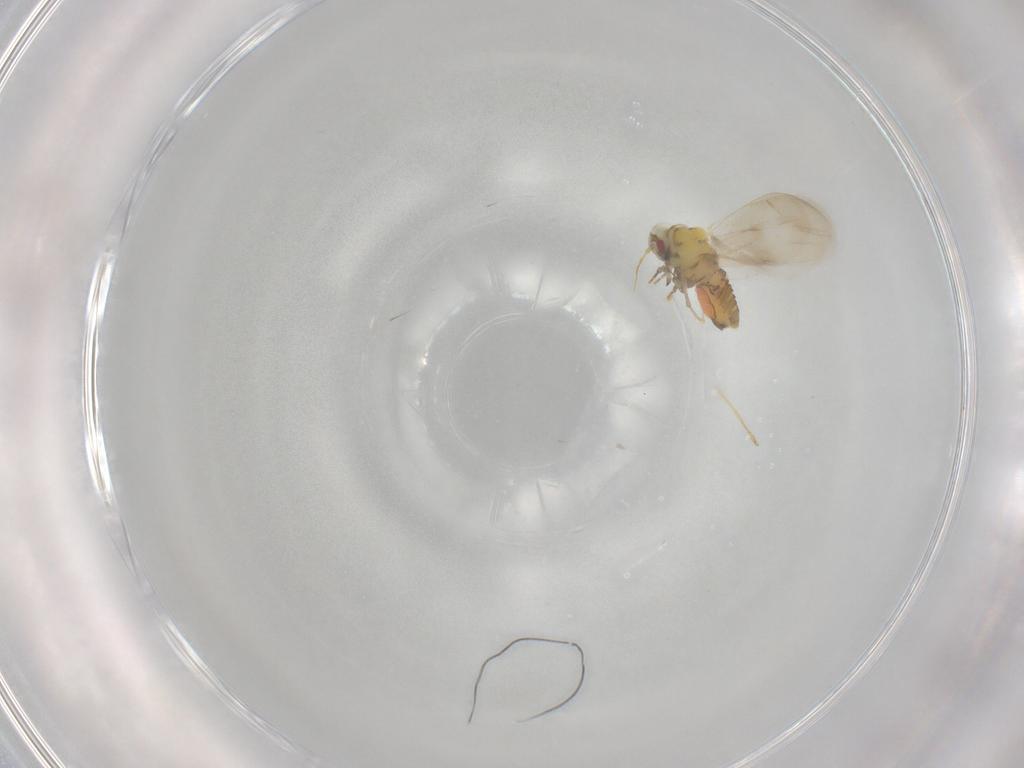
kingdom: Animalia
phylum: Arthropoda
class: Insecta
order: Hemiptera
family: Aleyrodidae
